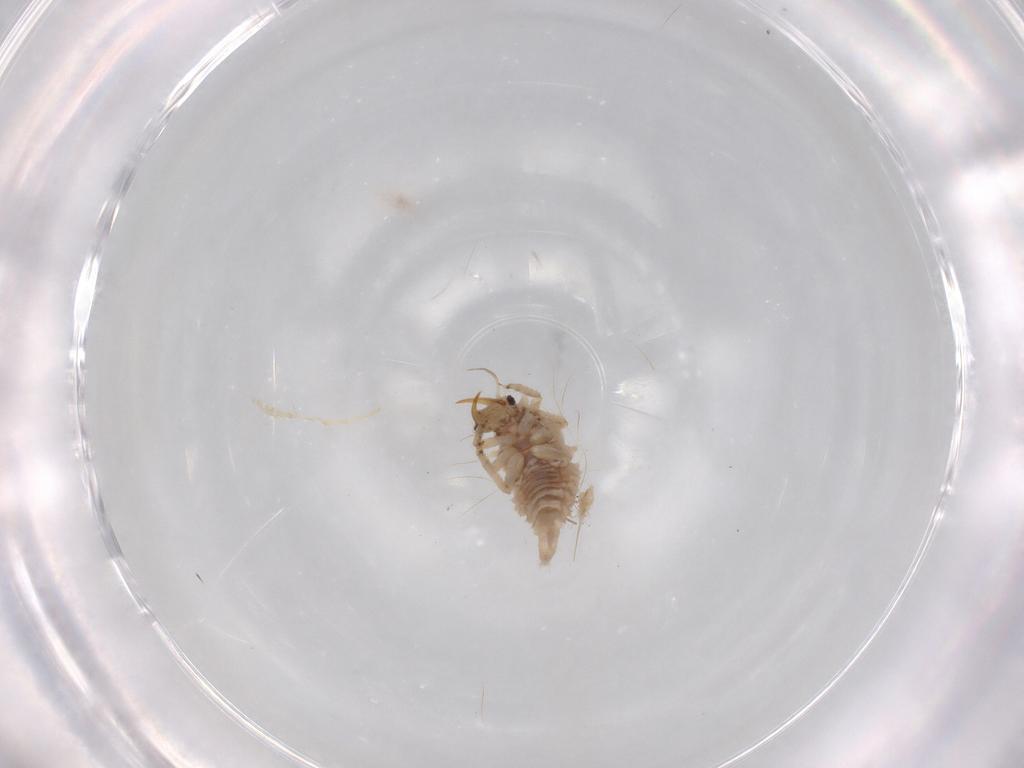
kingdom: Animalia
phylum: Arthropoda
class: Insecta
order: Neuroptera
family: Chrysopidae
